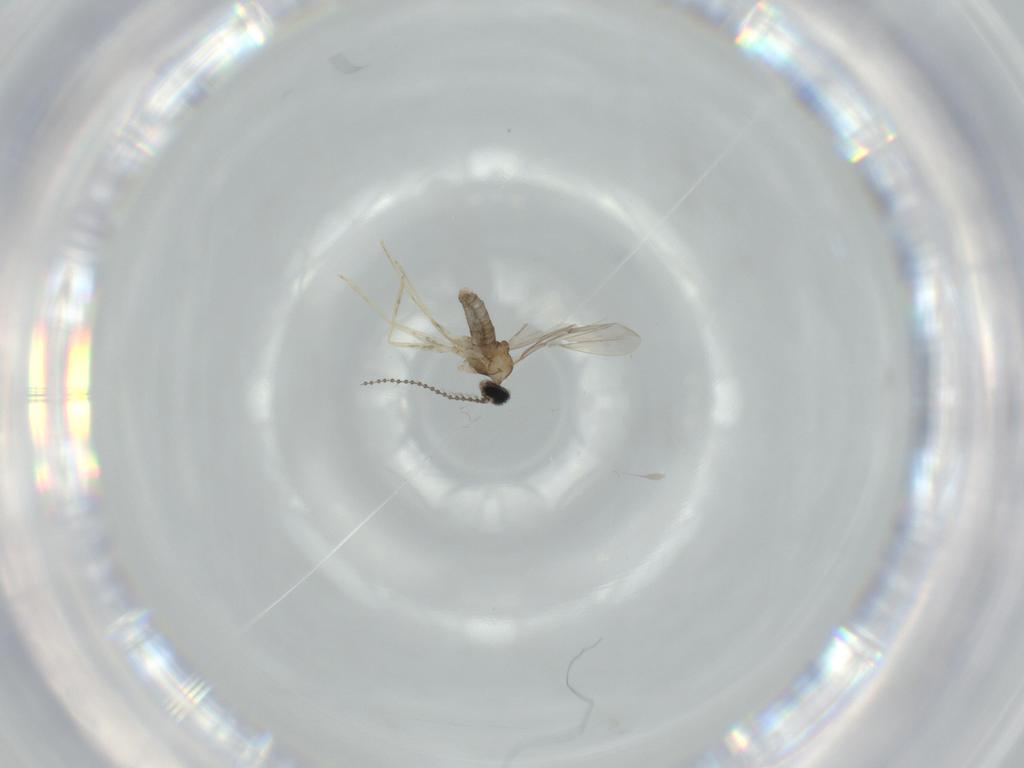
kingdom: Animalia
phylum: Arthropoda
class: Insecta
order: Diptera
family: Cecidomyiidae
